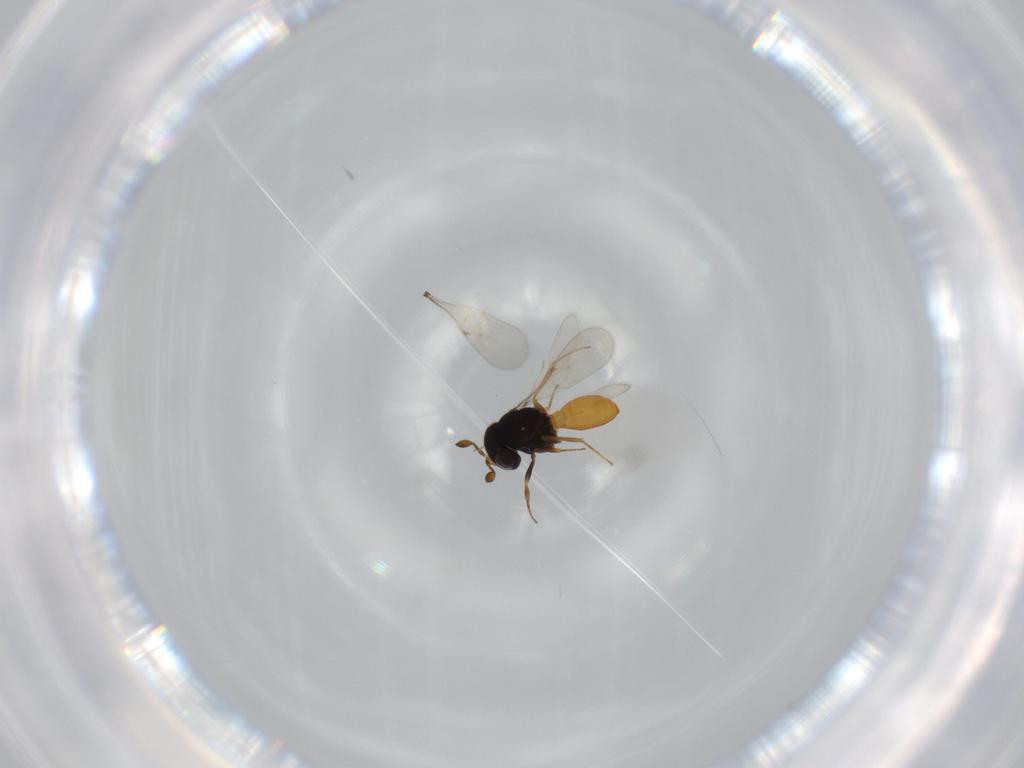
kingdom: Animalia
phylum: Arthropoda
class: Insecta
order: Hymenoptera
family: Scelionidae
